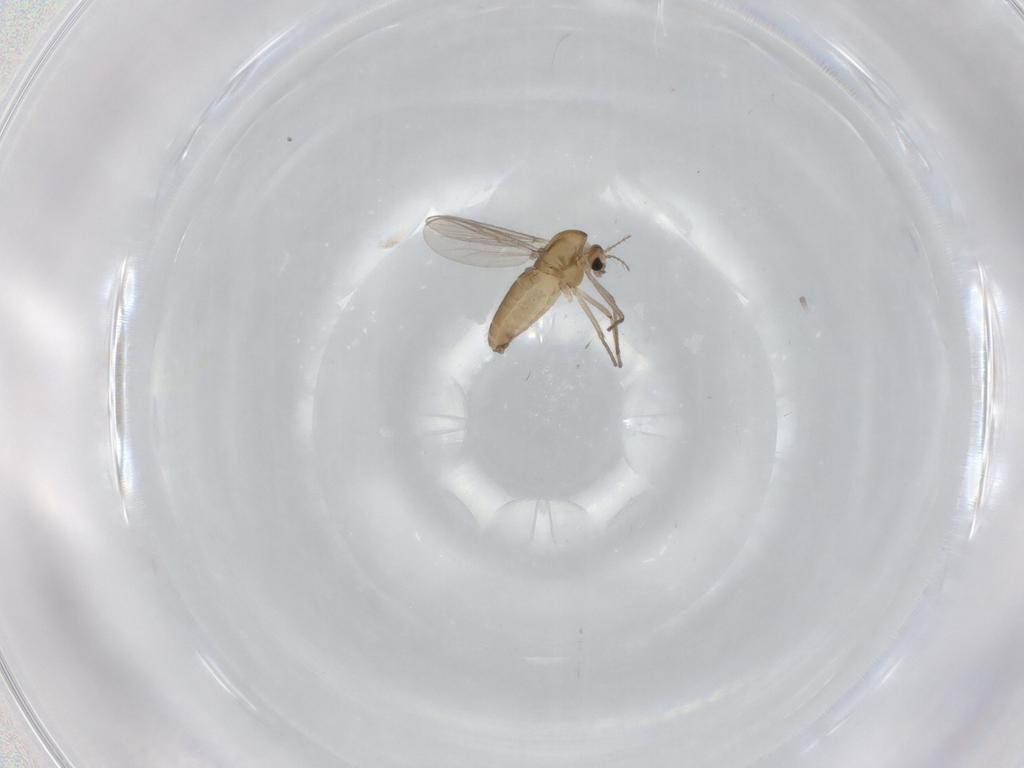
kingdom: Animalia
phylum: Arthropoda
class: Insecta
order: Diptera
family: Chironomidae
